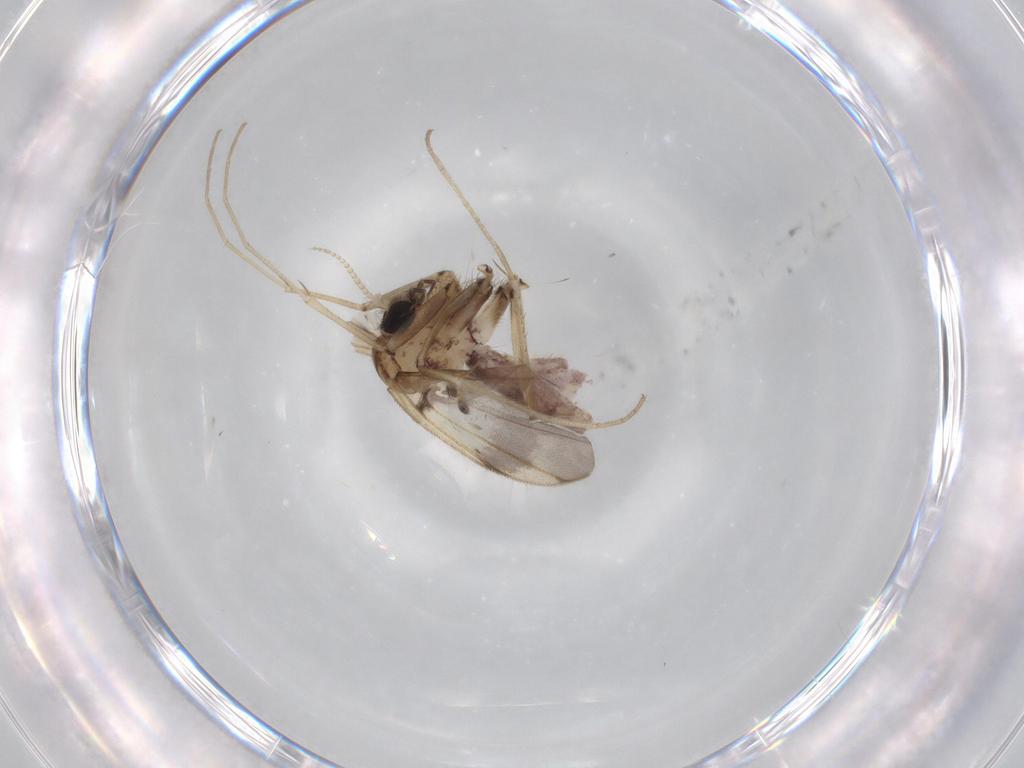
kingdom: Animalia
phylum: Arthropoda
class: Insecta
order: Diptera
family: Mycetophilidae
